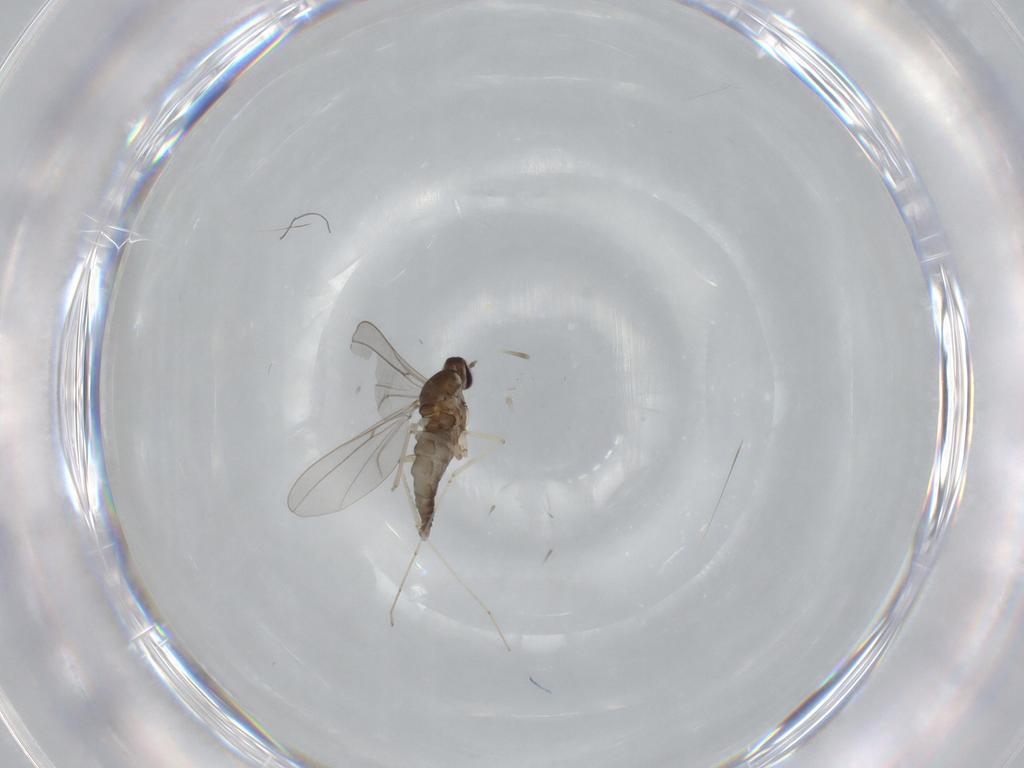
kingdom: Animalia
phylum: Arthropoda
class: Insecta
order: Diptera
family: Cecidomyiidae
